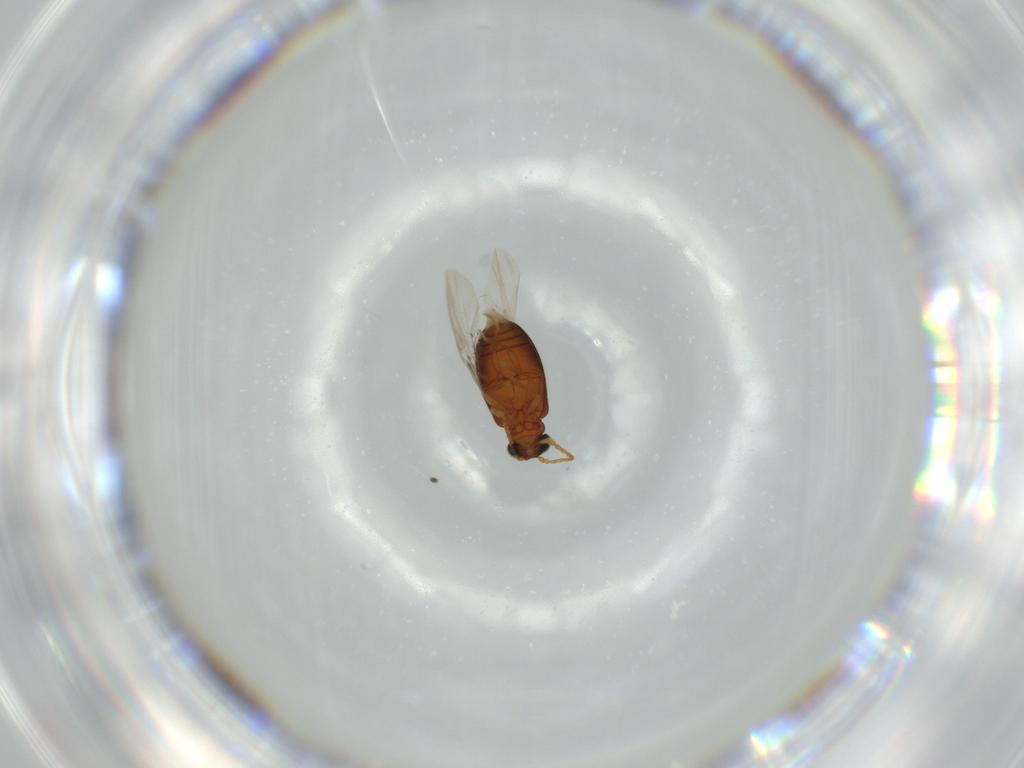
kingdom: Animalia
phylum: Arthropoda
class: Insecta
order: Coleoptera
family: Aderidae
